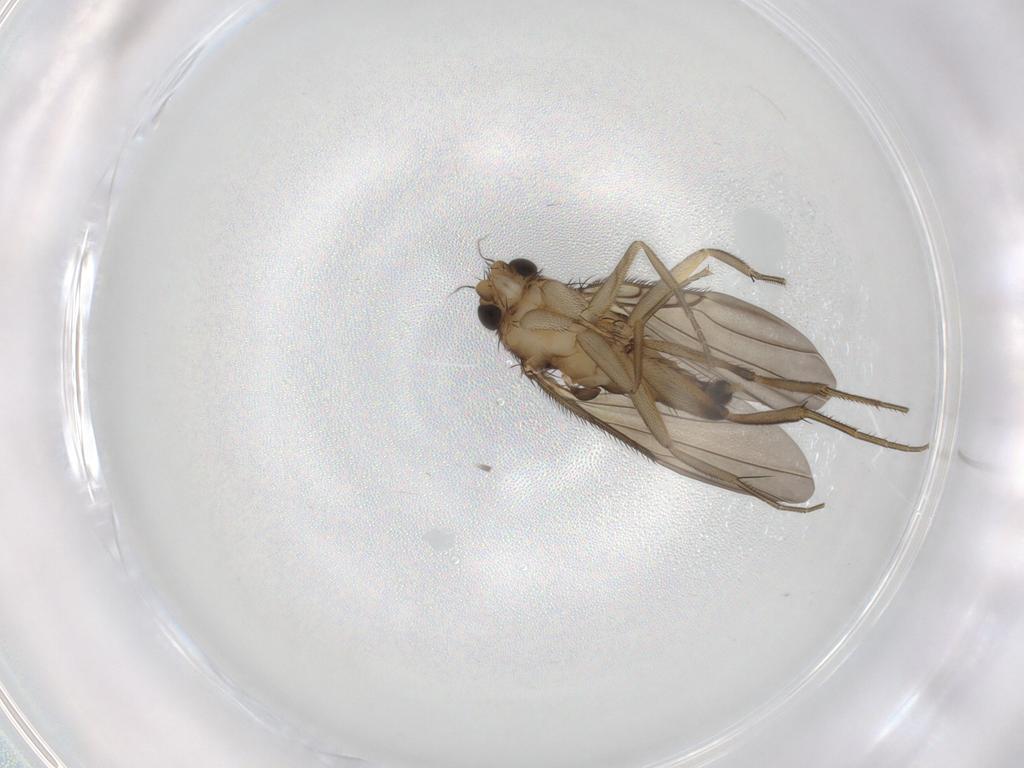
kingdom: Animalia
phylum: Arthropoda
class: Insecta
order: Diptera
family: Phoridae
